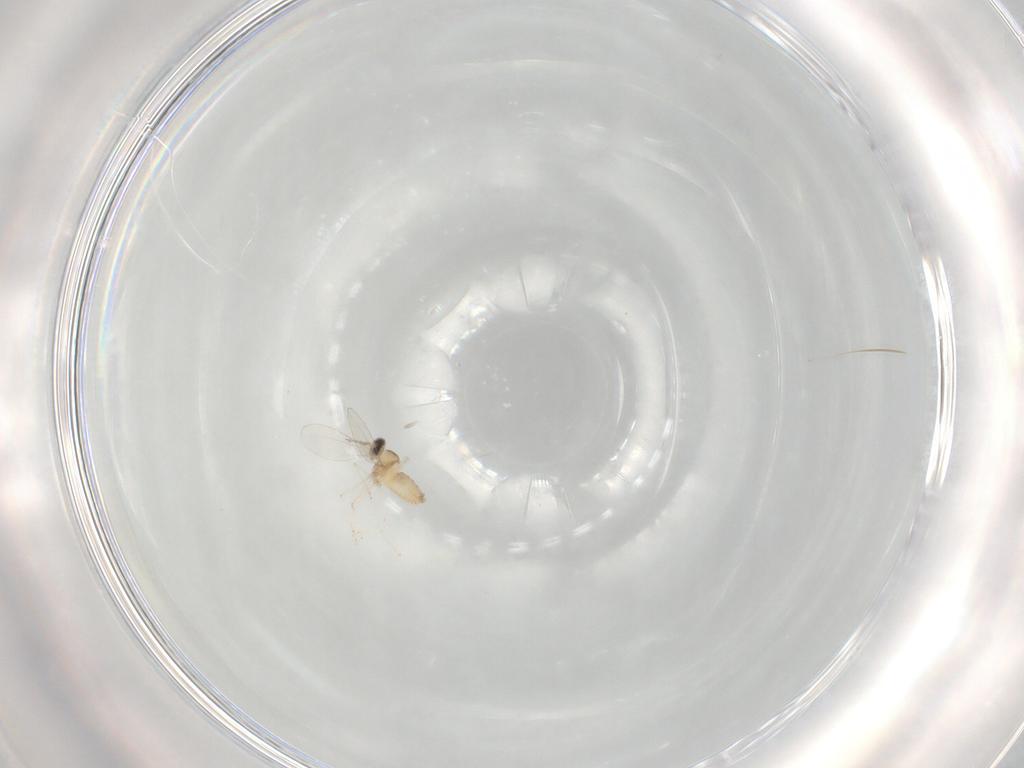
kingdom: Animalia
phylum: Arthropoda
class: Insecta
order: Diptera
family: Cecidomyiidae
